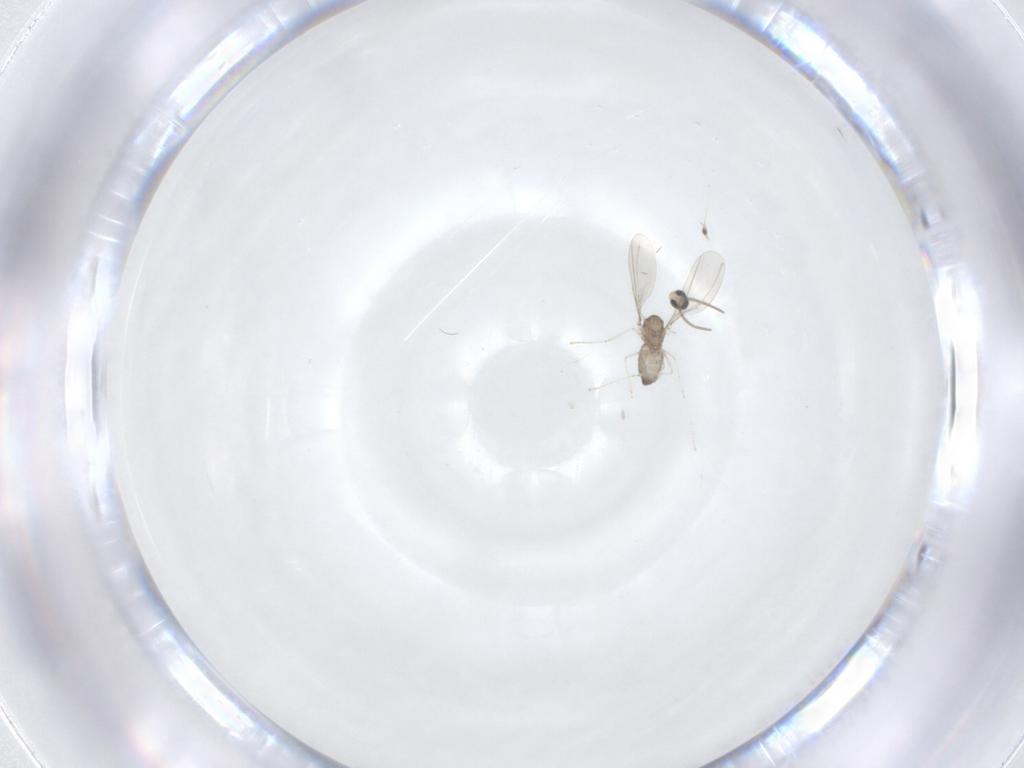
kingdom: Animalia
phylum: Arthropoda
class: Insecta
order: Diptera
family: Cecidomyiidae
